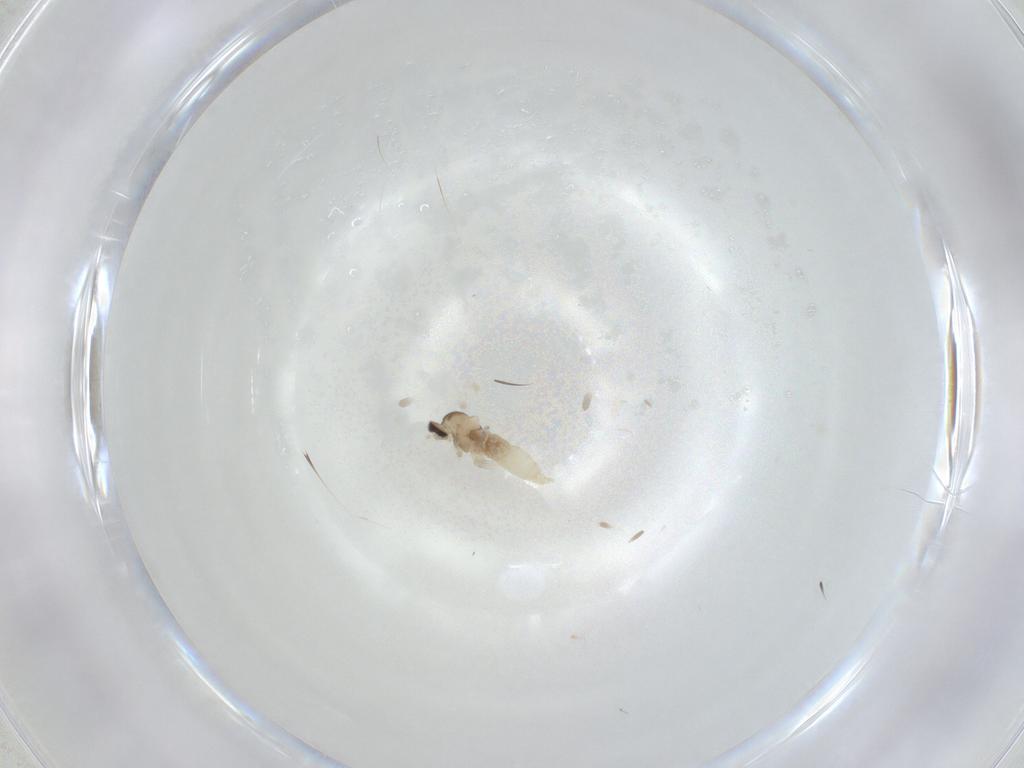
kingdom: Animalia
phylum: Arthropoda
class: Insecta
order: Diptera
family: Cecidomyiidae
